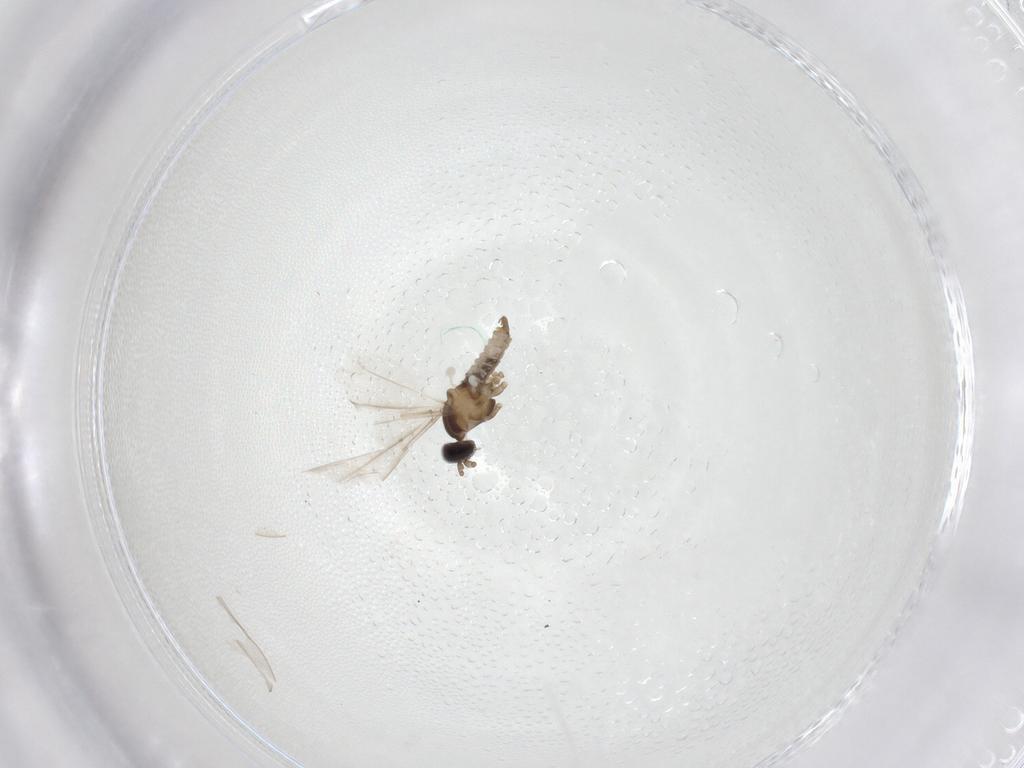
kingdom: Animalia
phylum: Arthropoda
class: Insecta
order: Diptera
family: Cecidomyiidae
